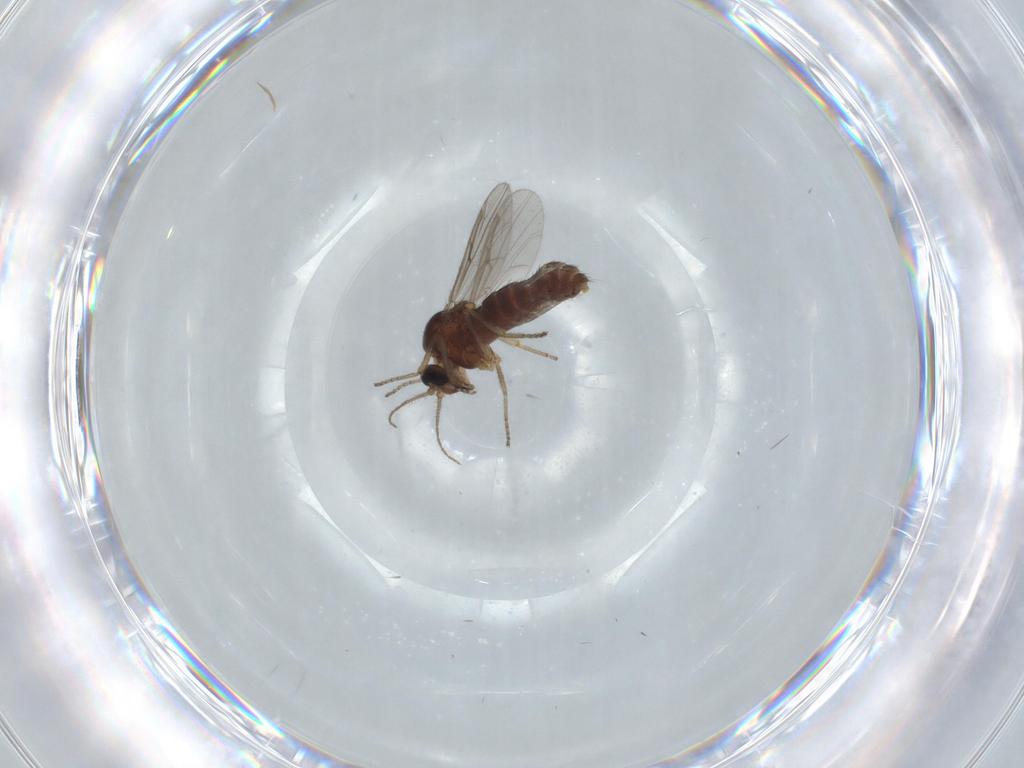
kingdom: Animalia
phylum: Arthropoda
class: Insecta
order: Diptera
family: Ceratopogonidae
